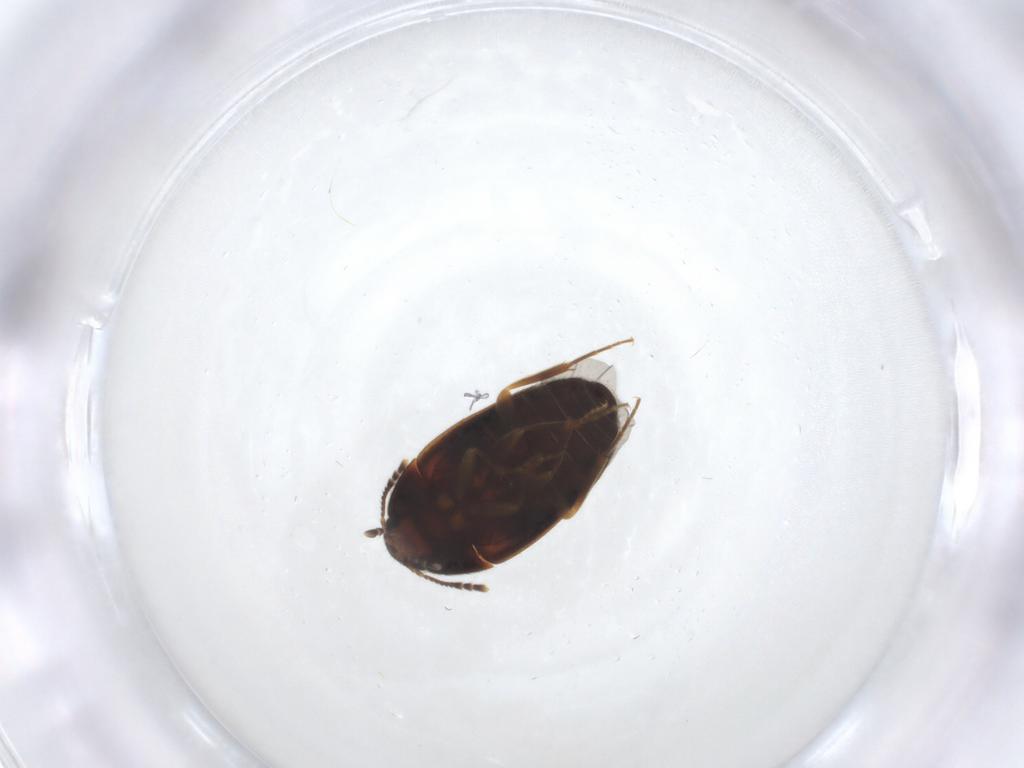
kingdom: Animalia
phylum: Arthropoda
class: Insecta
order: Coleoptera
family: Mycetophagidae
